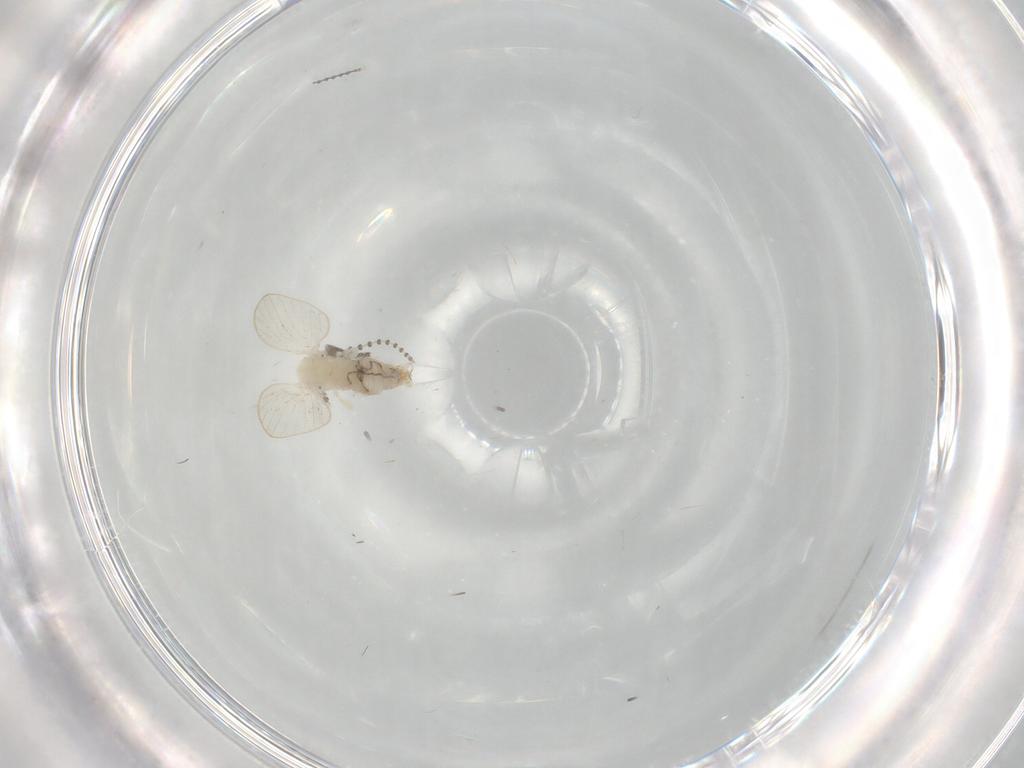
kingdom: Animalia
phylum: Arthropoda
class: Insecta
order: Diptera
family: Psychodidae
